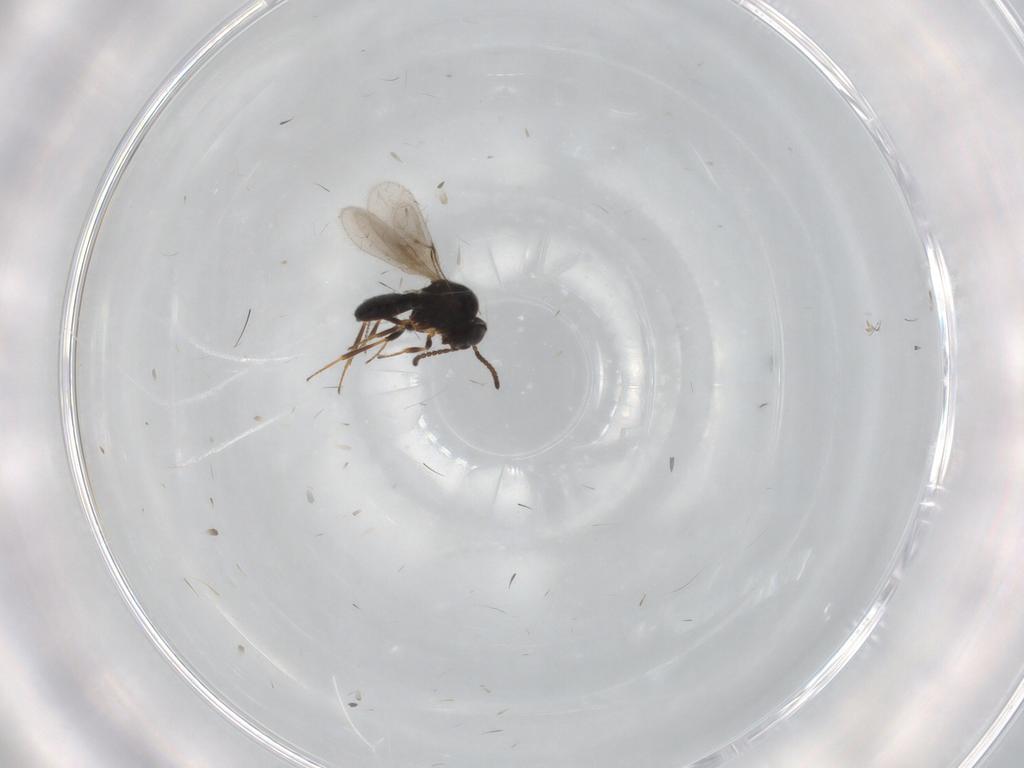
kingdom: Animalia
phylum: Arthropoda
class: Insecta
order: Hymenoptera
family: Scelionidae
